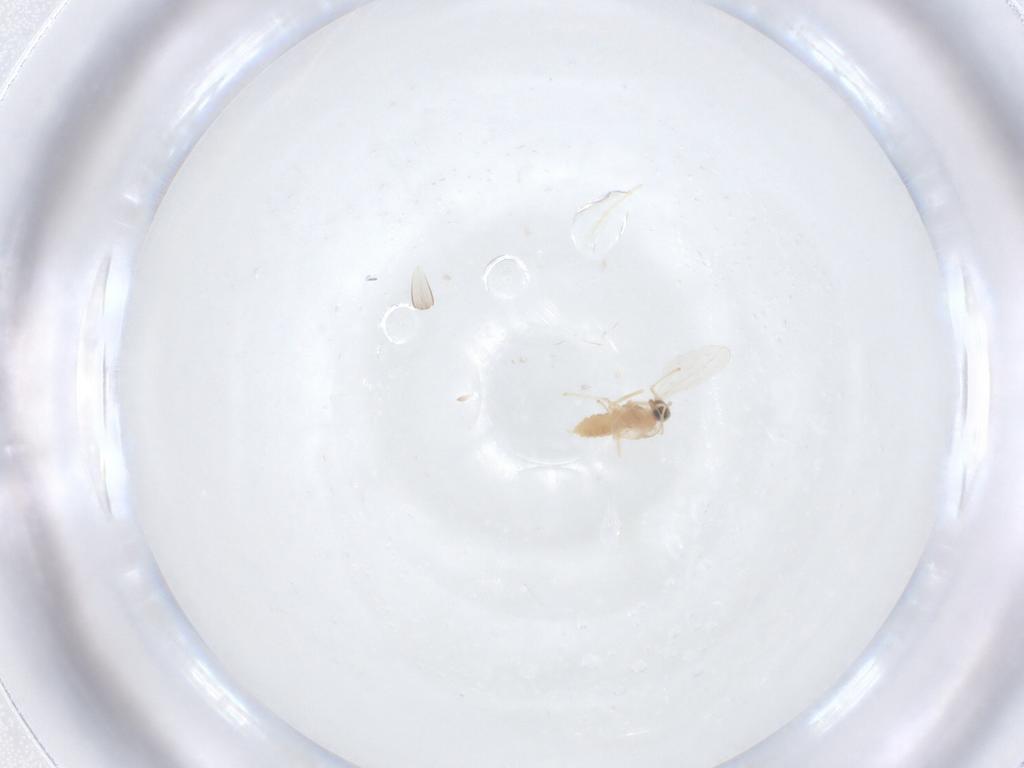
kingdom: Animalia
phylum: Arthropoda
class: Insecta
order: Diptera
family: Cecidomyiidae
